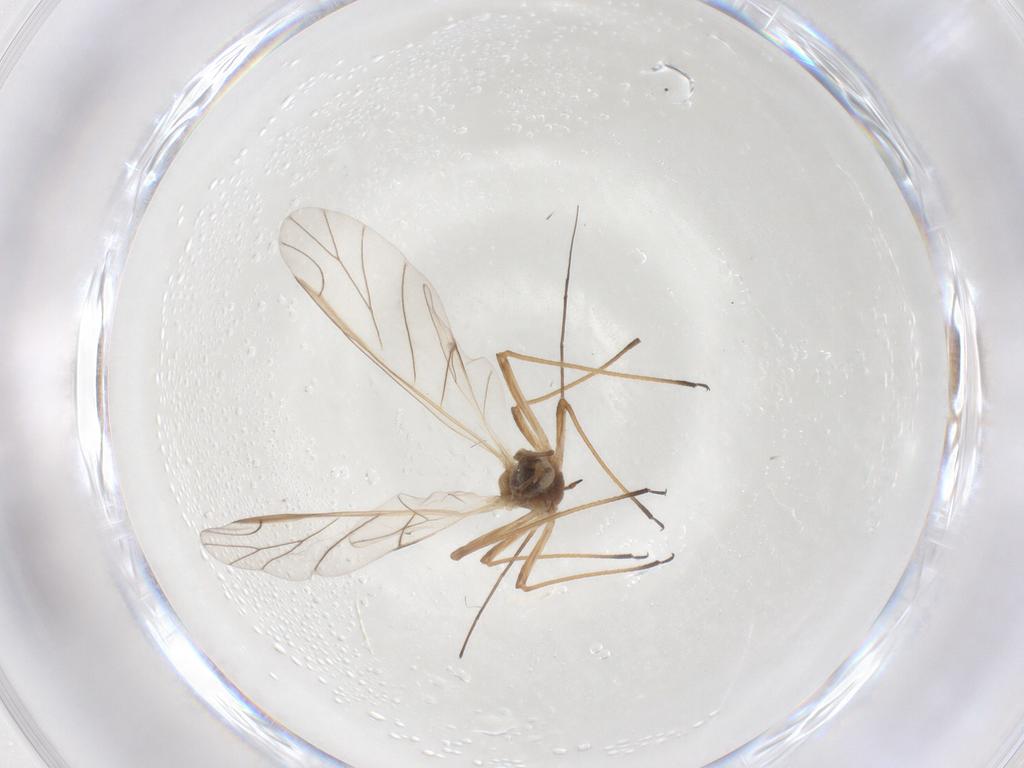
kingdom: Animalia
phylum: Arthropoda
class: Insecta
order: Hemiptera
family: Aphididae
